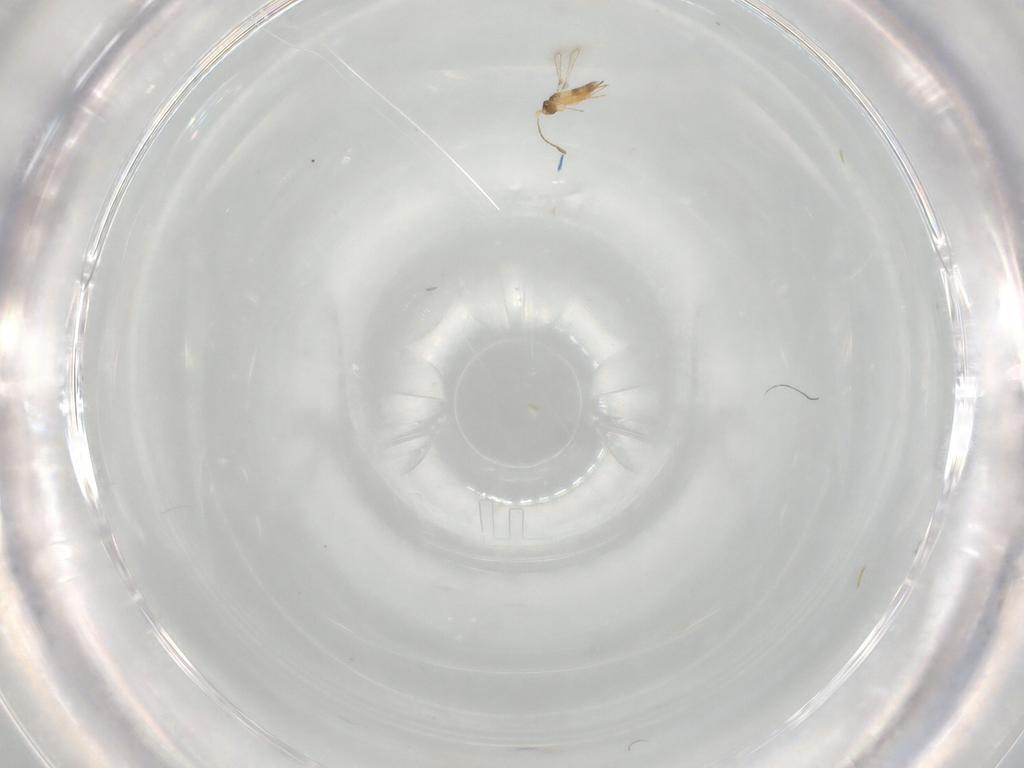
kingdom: Animalia
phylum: Arthropoda
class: Insecta
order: Hymenoptera
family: Mymaridae
